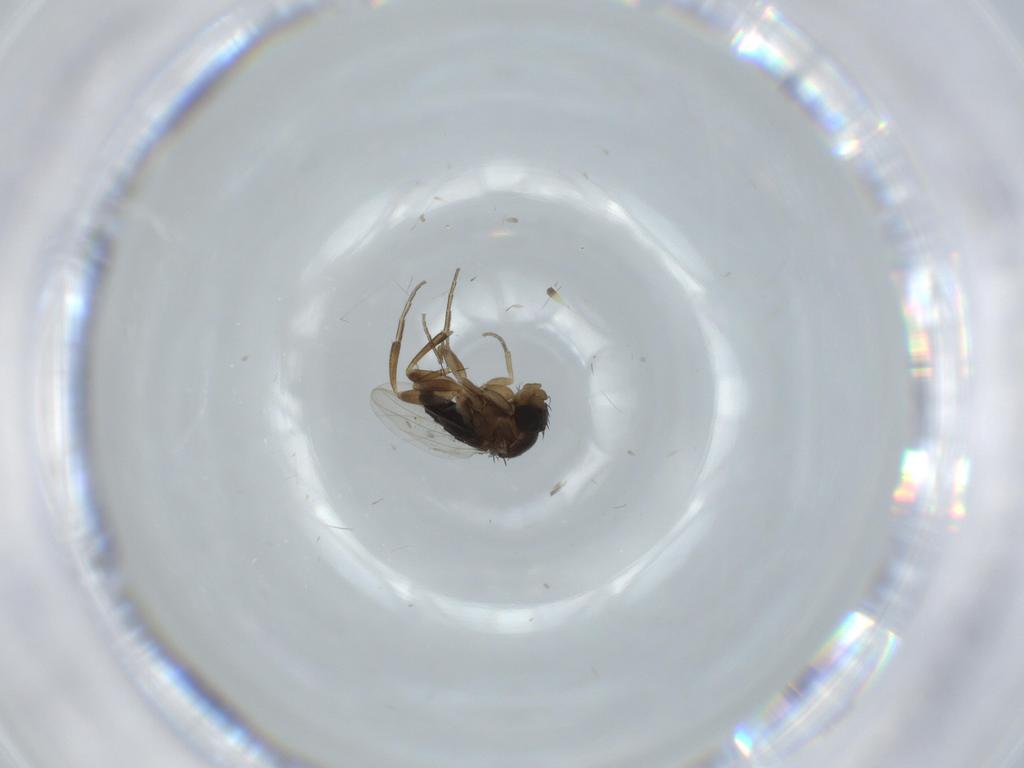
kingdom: Animalia
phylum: Arthropoda
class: Insecta
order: Diptera
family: Phoridae
